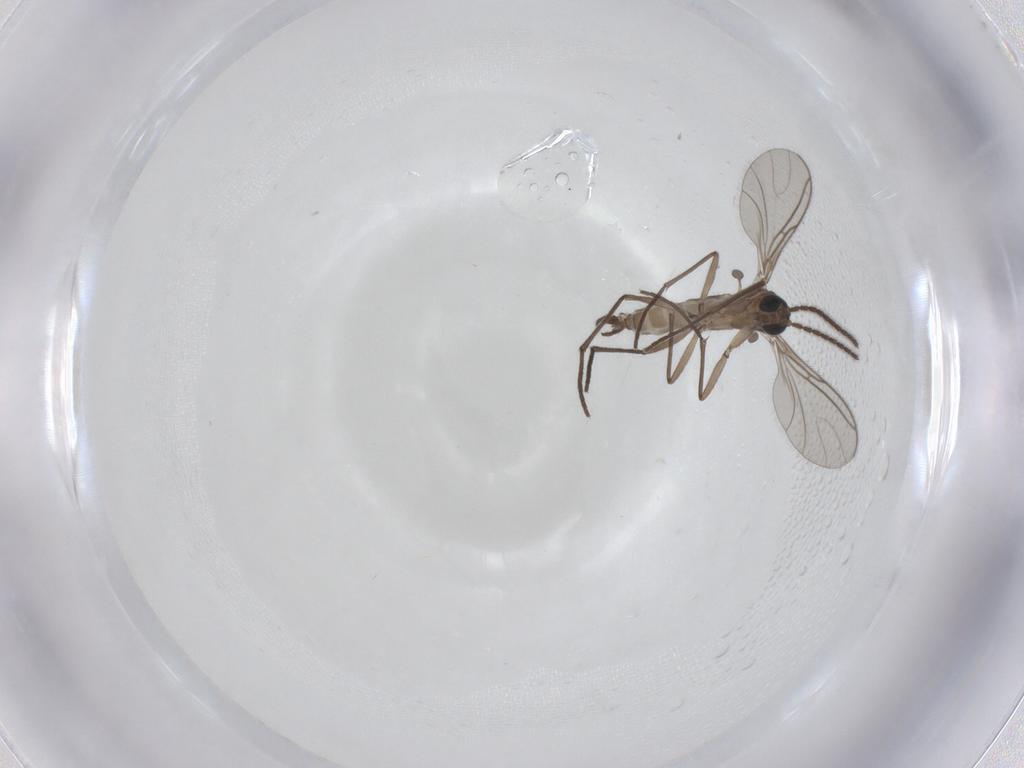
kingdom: Animalia
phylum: Arthropoda
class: Insecta
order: Diptera
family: Sciaridae
